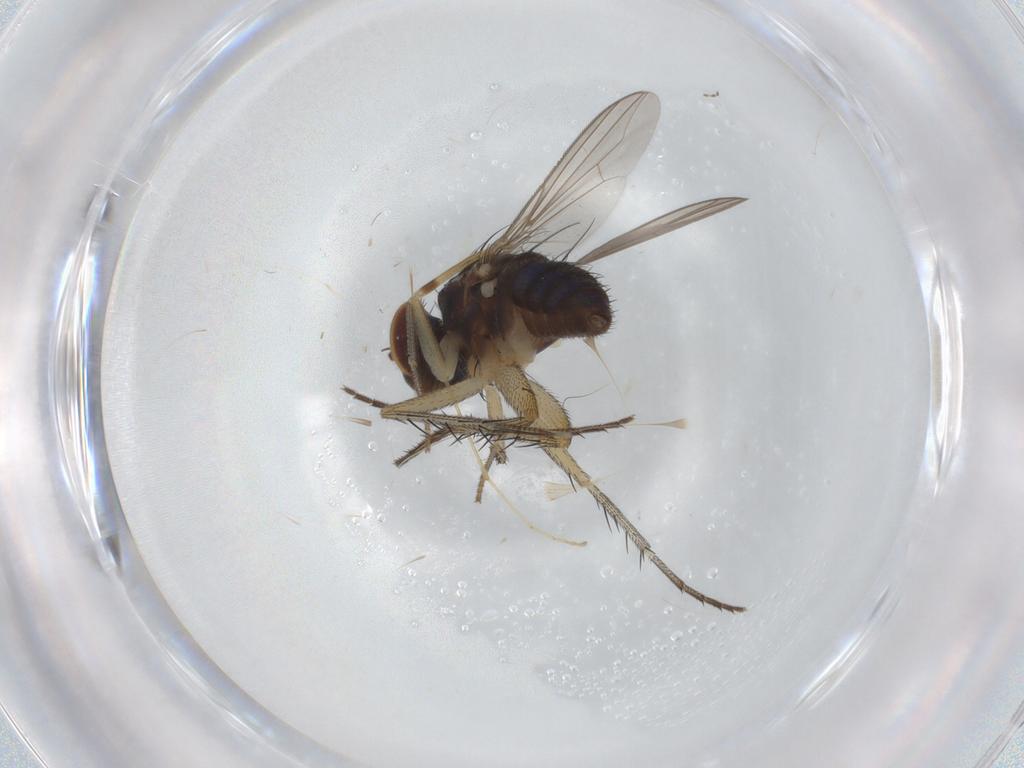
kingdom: Animalia
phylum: Arthropoda
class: Insecta
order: Diptera
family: Dolichopodidae
